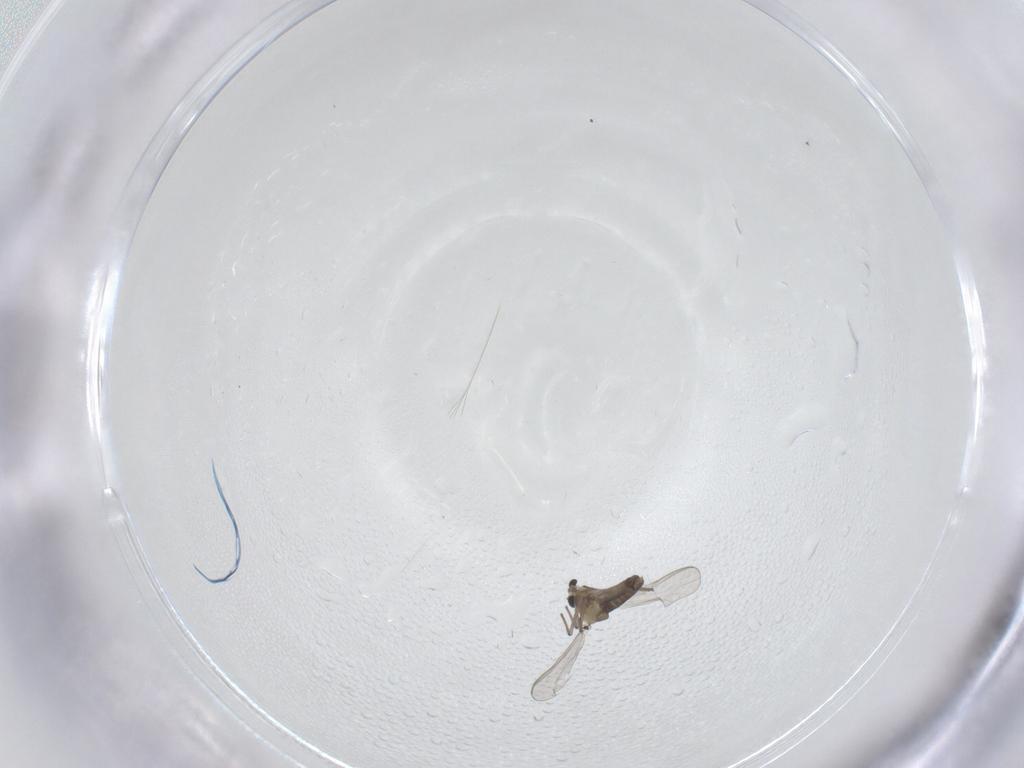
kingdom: Animalia
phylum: Arthropoda
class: Insecta
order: Diptera
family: Chironomidae
